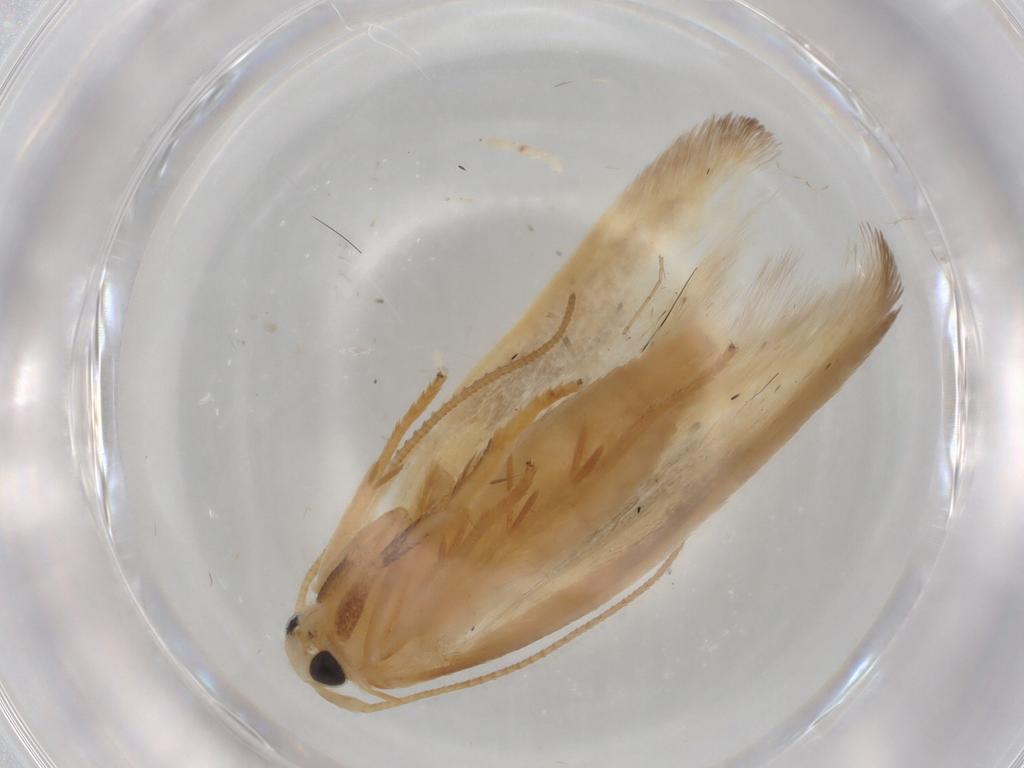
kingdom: Animalia
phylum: Arthropoda
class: Insecta
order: Lepidoptera
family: Geometridae
